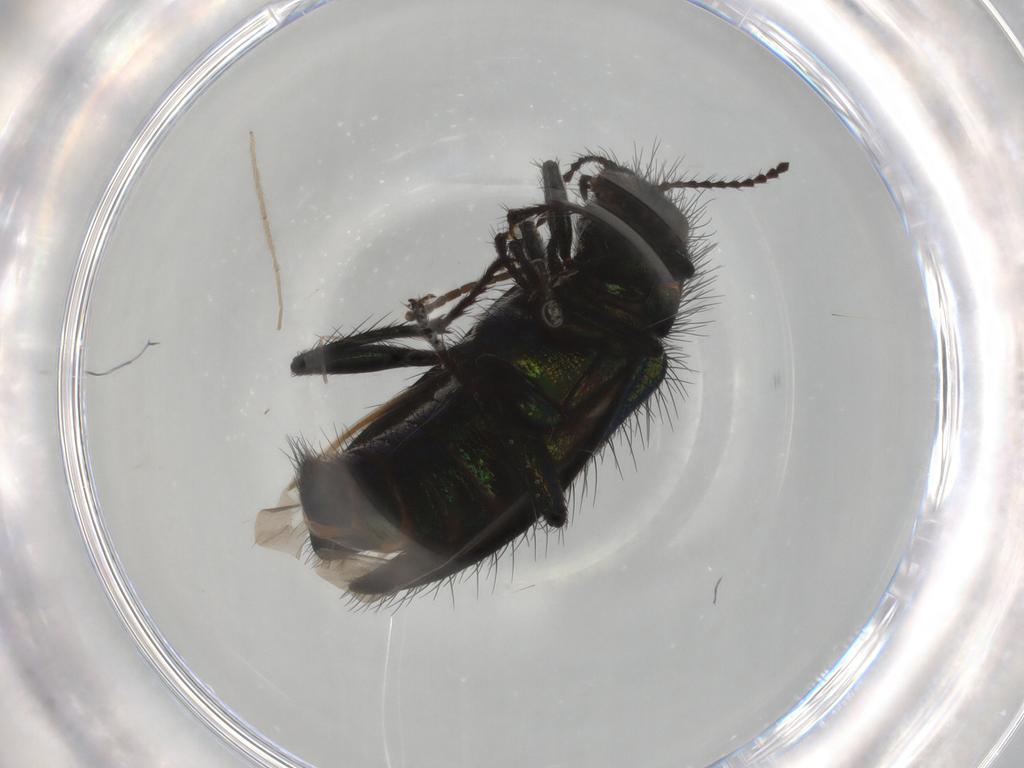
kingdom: Animalia
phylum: Arthropoda
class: Insecta
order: Coleoptera
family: Melyridae
